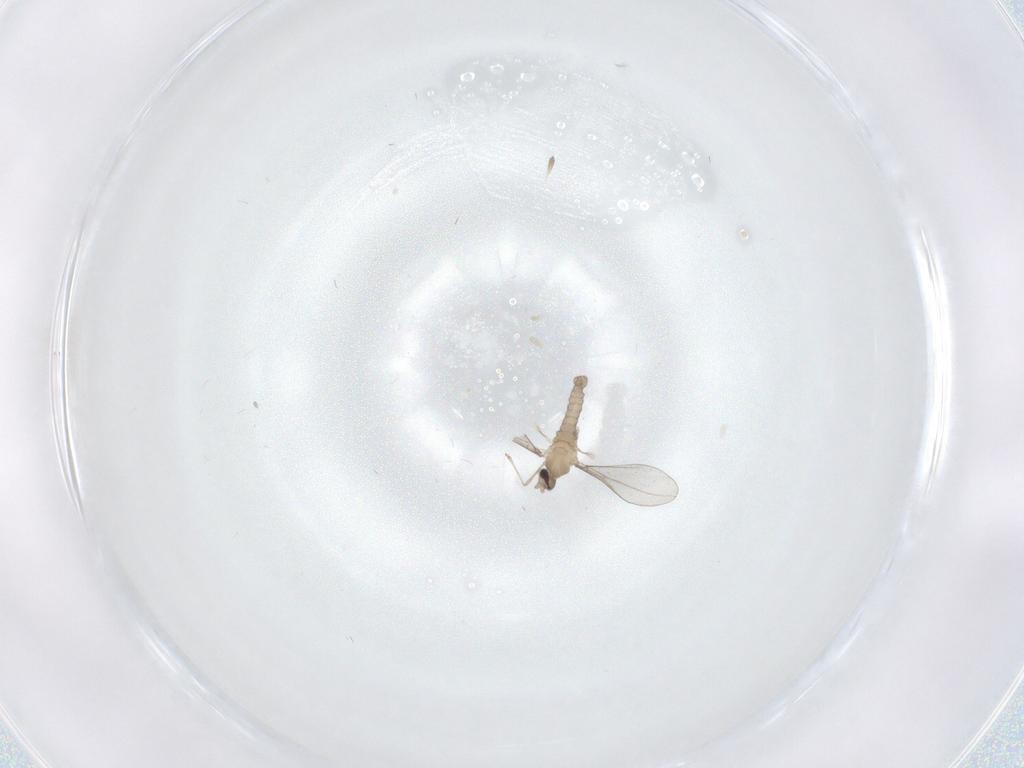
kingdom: Animalia
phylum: Arthropoda
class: Insecta
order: Diptera
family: Cecidomyiidae
